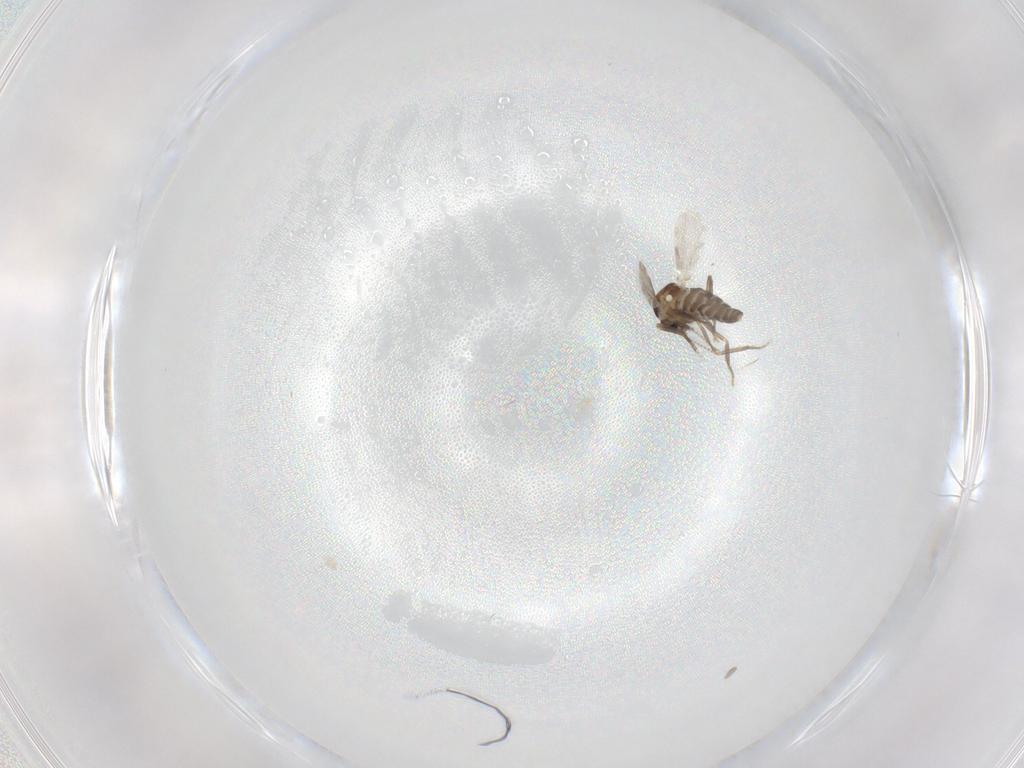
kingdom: Animalia
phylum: Arthropoda
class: Insecta
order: Diptera
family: Ceratopogonidae
